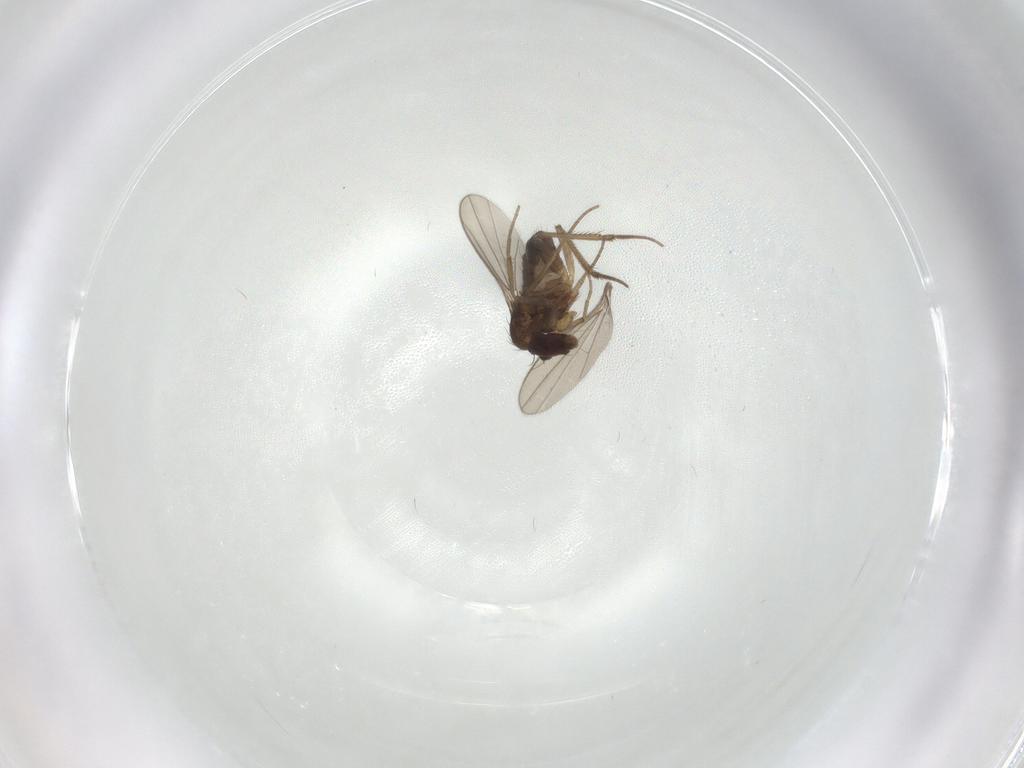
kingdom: Animalia
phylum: Arthropoda
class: Insecta
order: Diptera
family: Dolichopodidae
